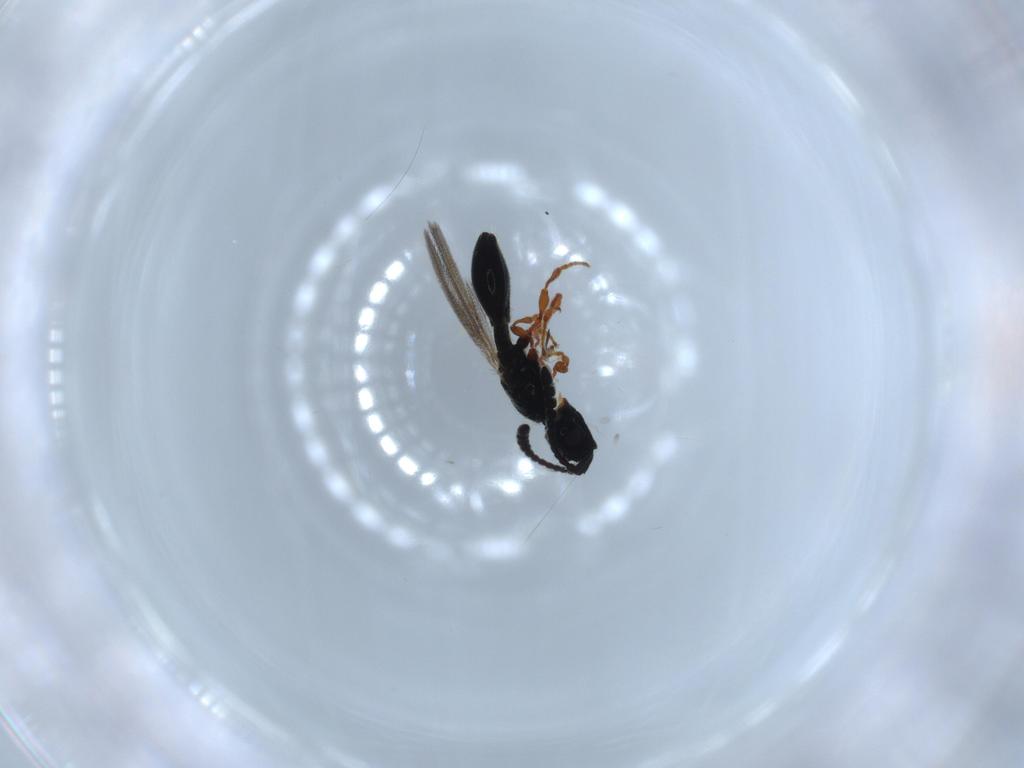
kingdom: Animalia
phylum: Arthropoda
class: Insecta
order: Hymenoptera
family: Diapriidae
